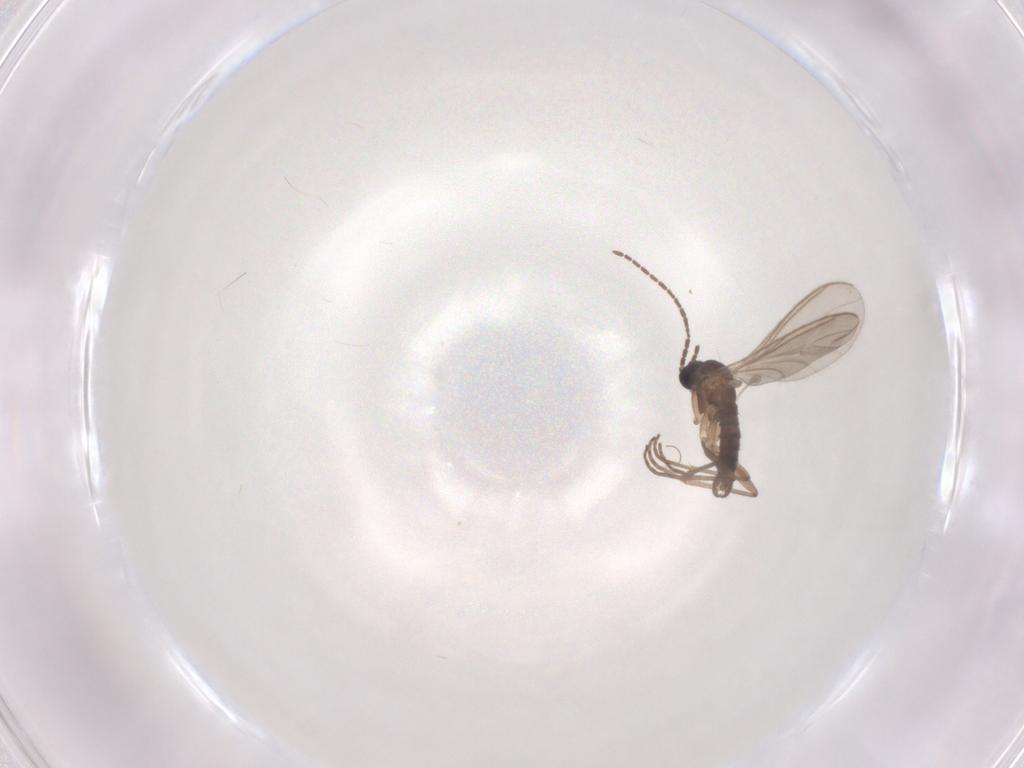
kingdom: Animalia
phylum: Arthropoda
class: Insecta
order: Diptera
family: Sciaridae
